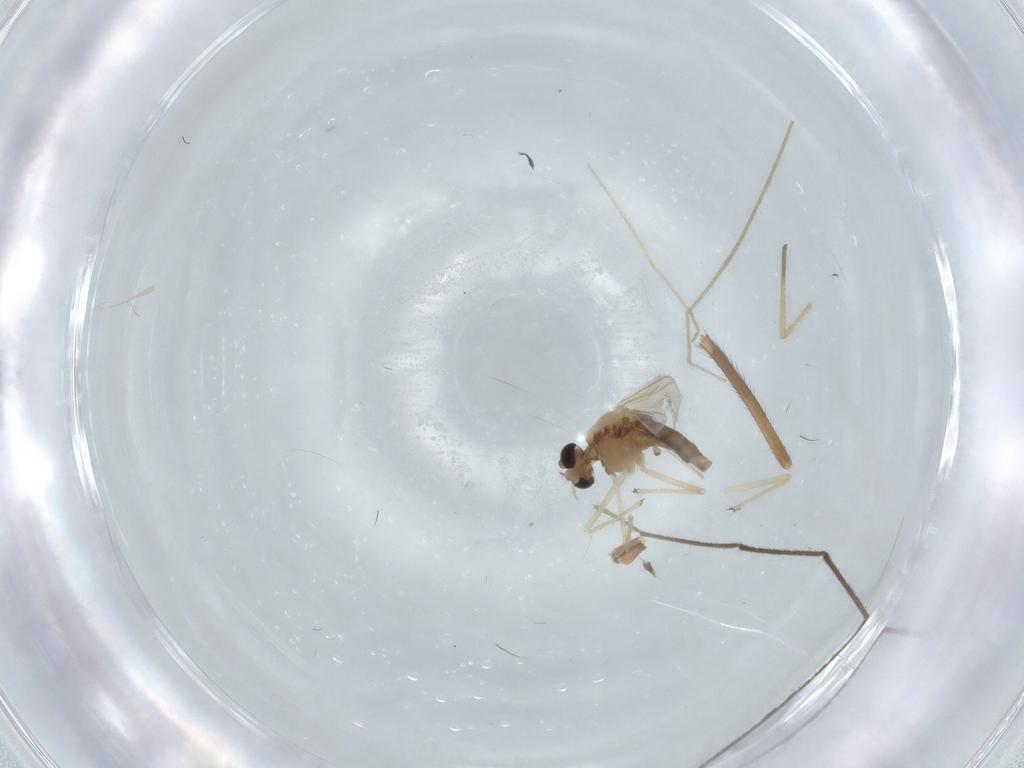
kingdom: Animalia
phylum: Arthropoda
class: Insecta
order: Diptera
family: Chironomidae
